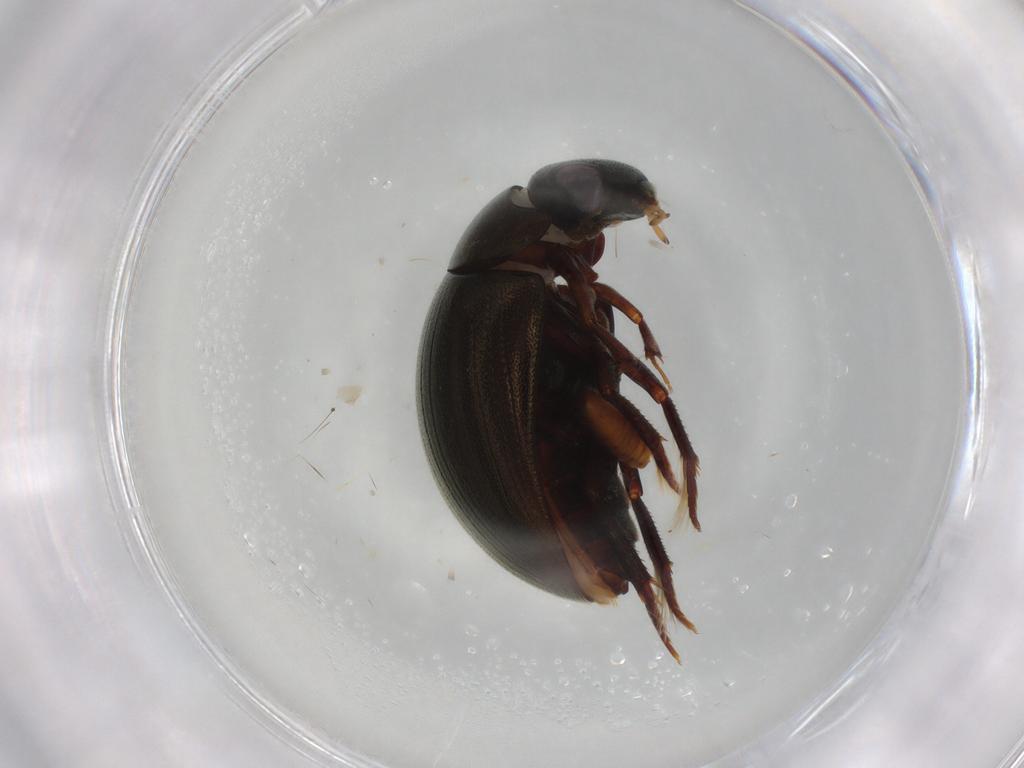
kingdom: Animalia
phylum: Arthropoda
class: Insecta
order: Coleoptera
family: Hydrophilidae
